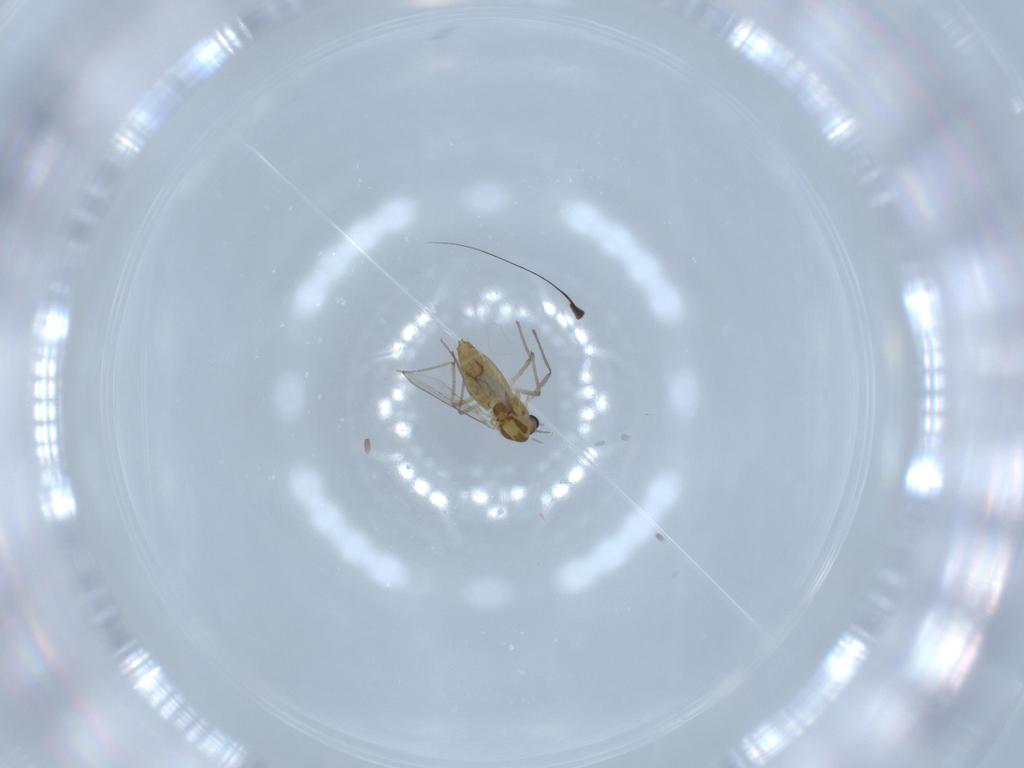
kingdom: Animalia
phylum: Arthropoda
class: Insecta
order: Diptera
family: Chironomidae
